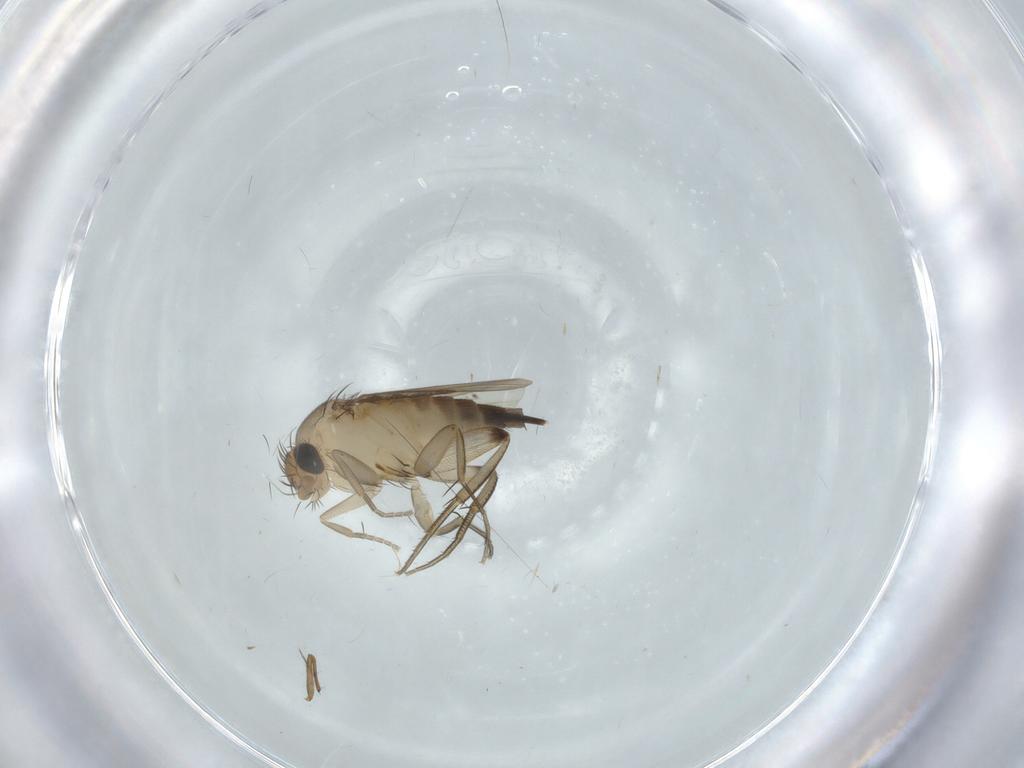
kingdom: Animalia
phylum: Arthropoda
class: Insecta
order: Diptera
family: Phoridae
